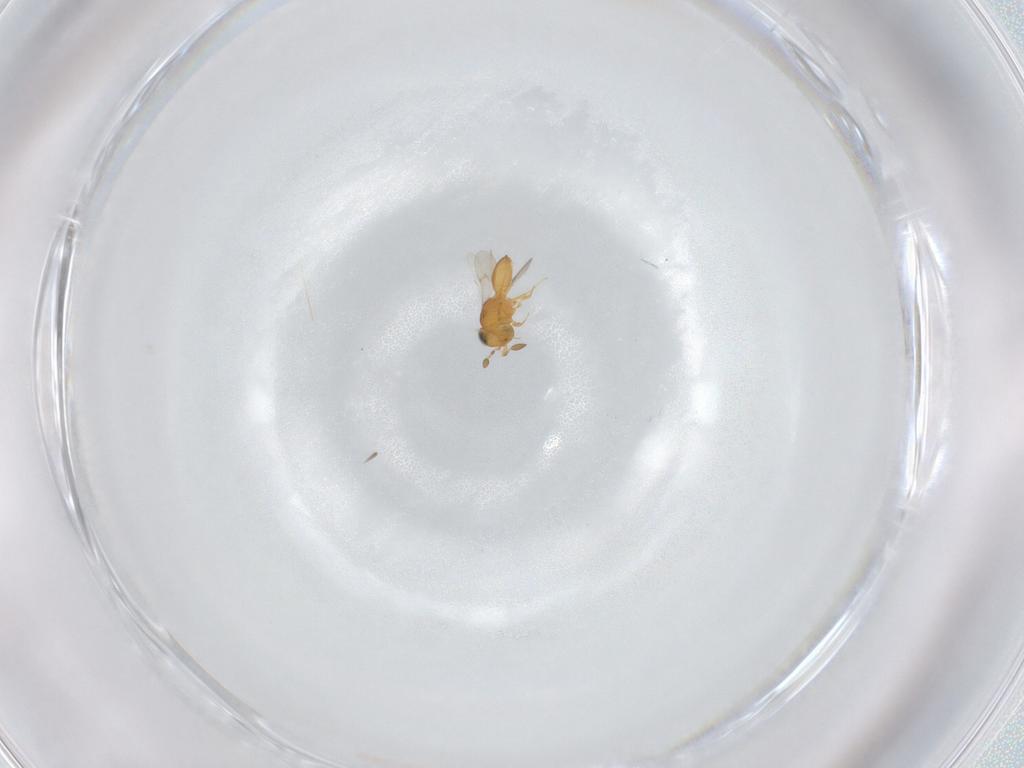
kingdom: Animalia
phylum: Arthropoda
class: Insecta
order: Hymenoptera
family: Scelionidae
